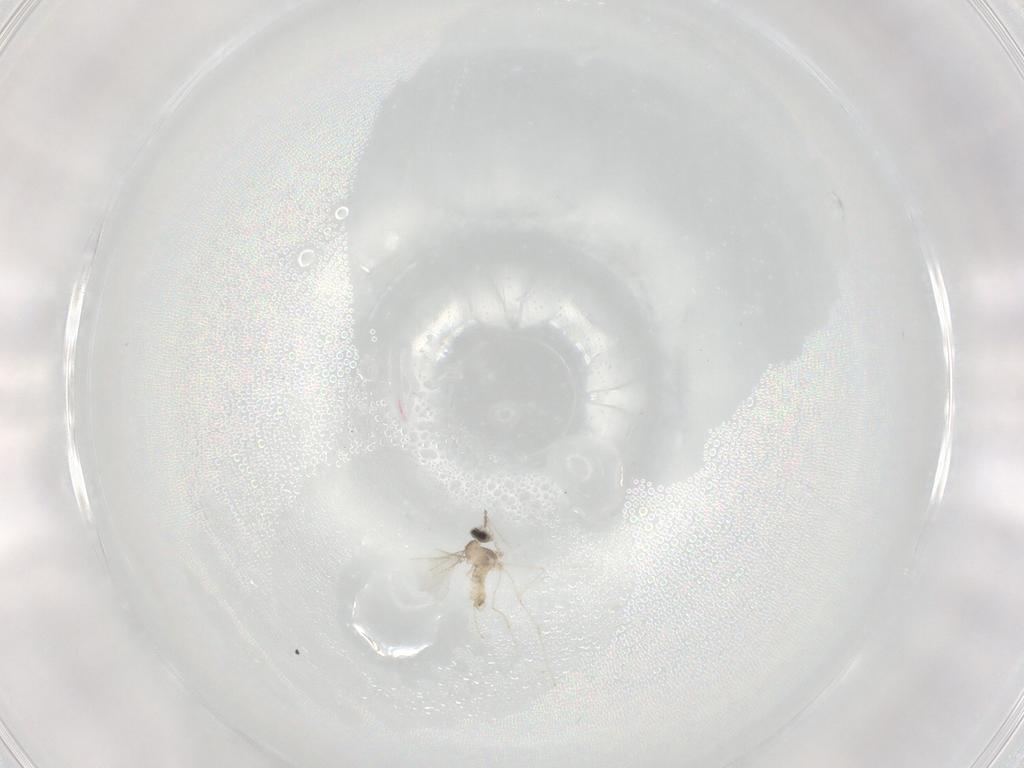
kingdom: Animalia
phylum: Arthropoda
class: Insecta
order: Diptera
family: Cecidomyiidae
